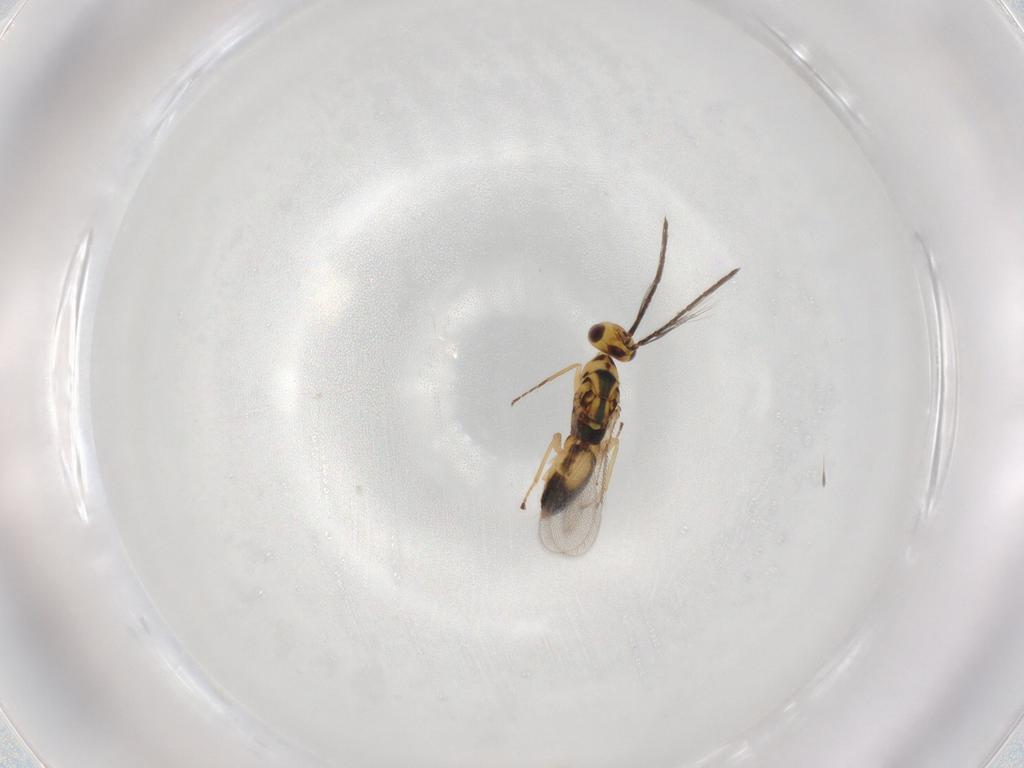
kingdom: Animalia
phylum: Arthropoda
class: Insecta
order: Hymenoptera
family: Eulophidae
